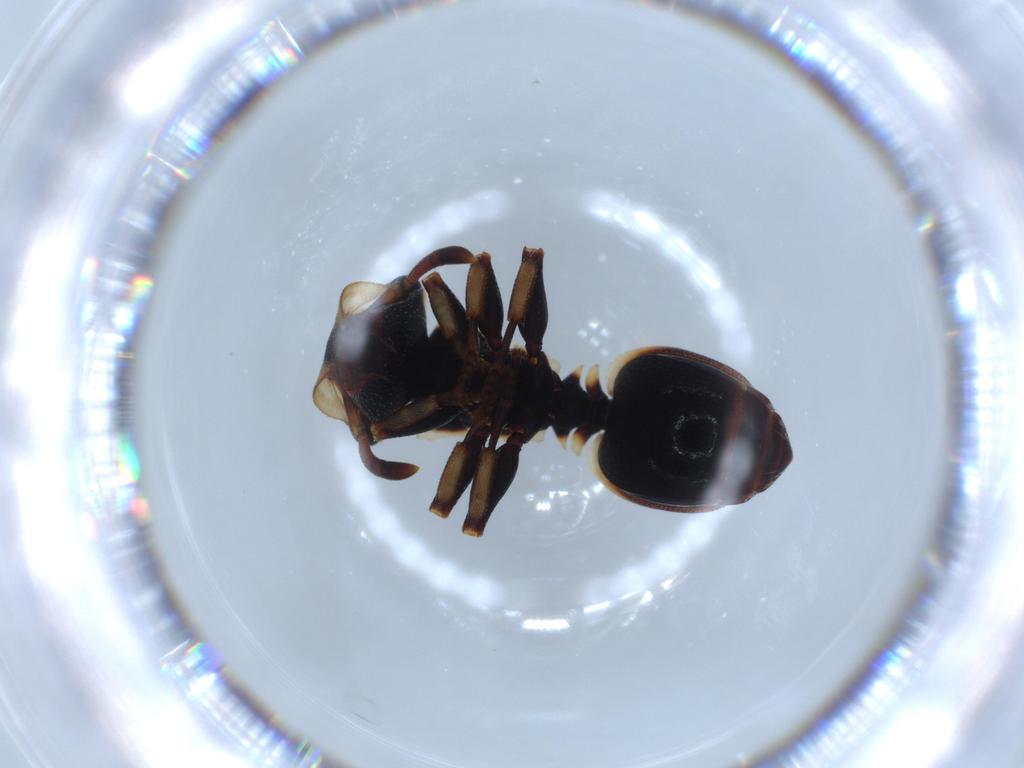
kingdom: Animalia
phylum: Arthropoda
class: Insecta
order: Hymenoptera
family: Formicidae
